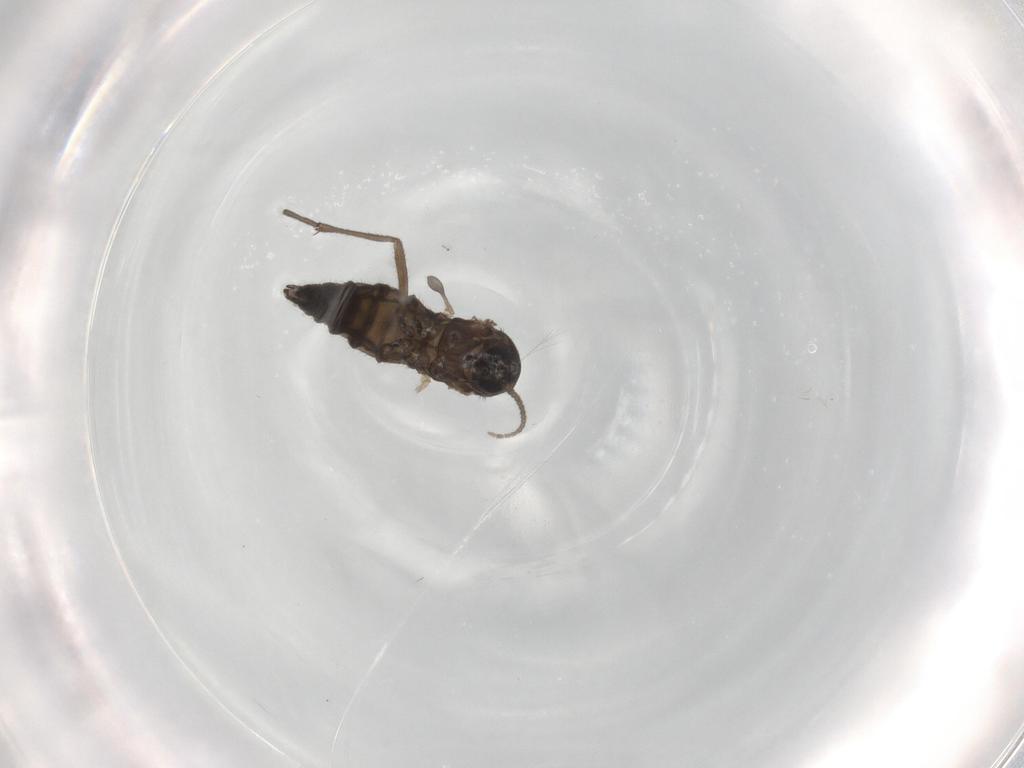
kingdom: Animalia
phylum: Arthropoda
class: Insecta
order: Diptera
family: Sciaridae
